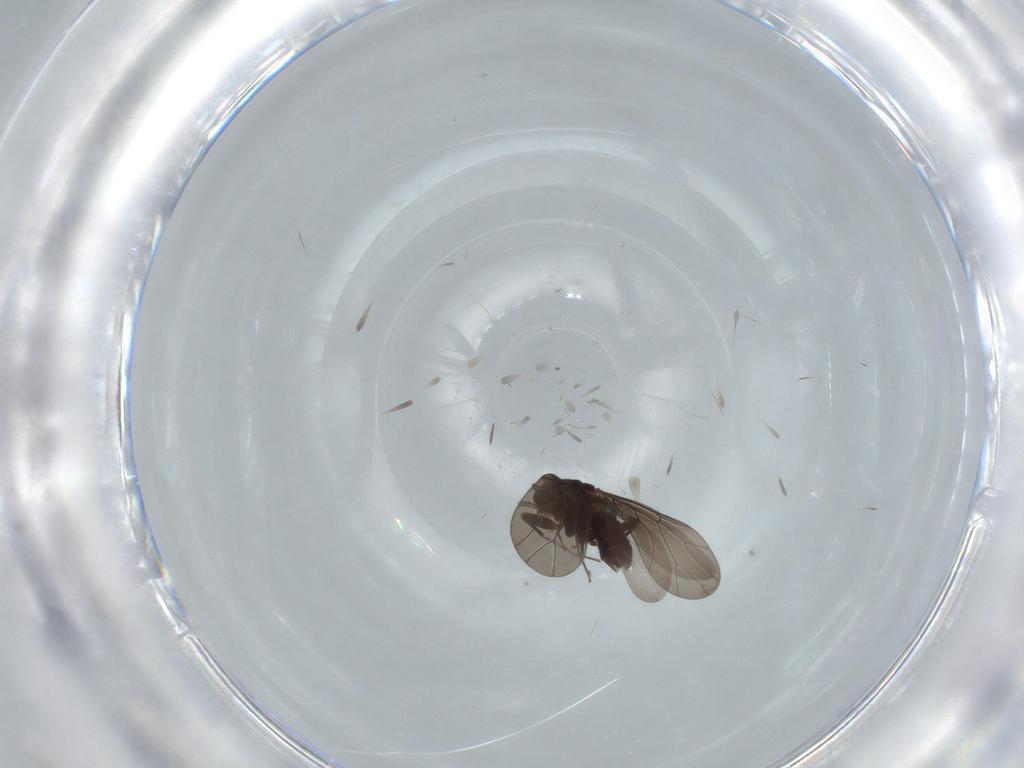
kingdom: Animalia
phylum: Arthropoda
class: Insecta
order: Psocodea
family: Lepidopsocidae
